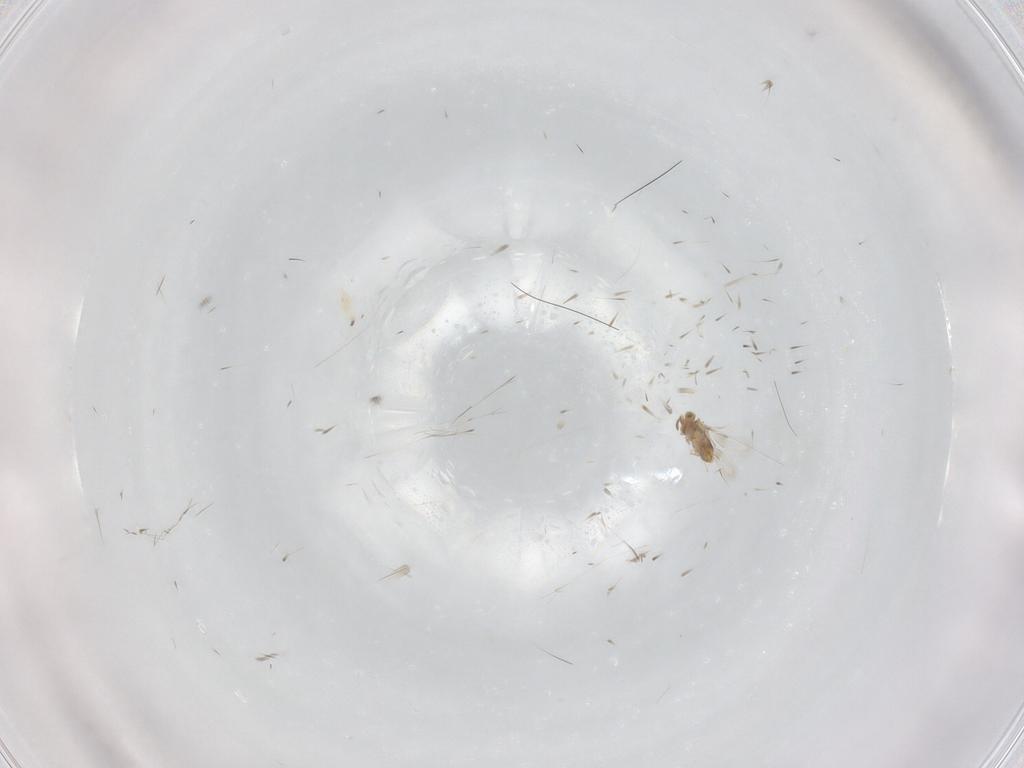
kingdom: Animalia
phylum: Arthropoda
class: Insecta
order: Hymenoptera
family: Aphelinidae
